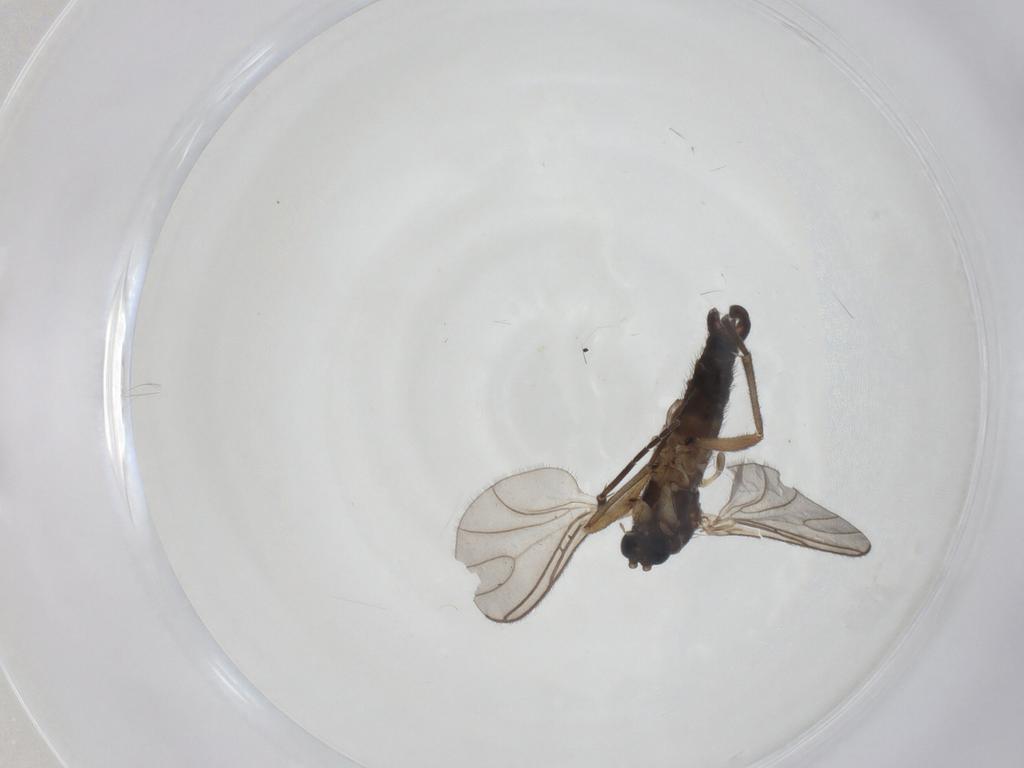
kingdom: Animalia
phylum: Arthropoda
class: Insecta
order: Diptera
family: Sciaridae
